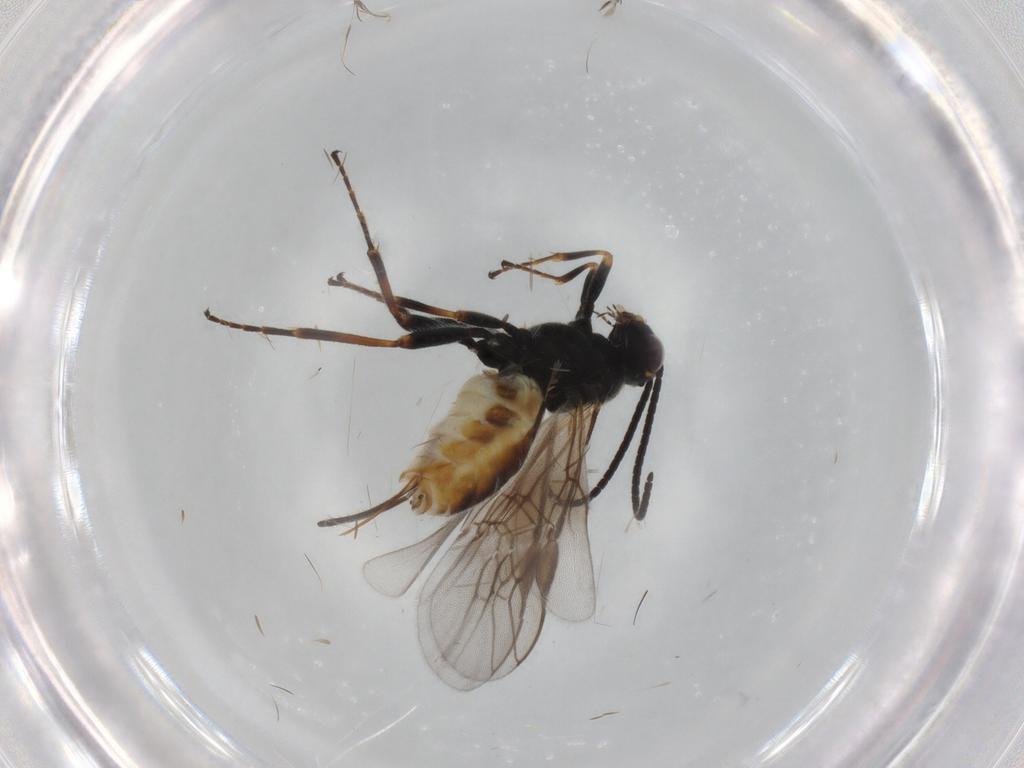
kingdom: Animalia
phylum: Arthropoda
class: Insecta
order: Hymenoptera
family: Braconidae
